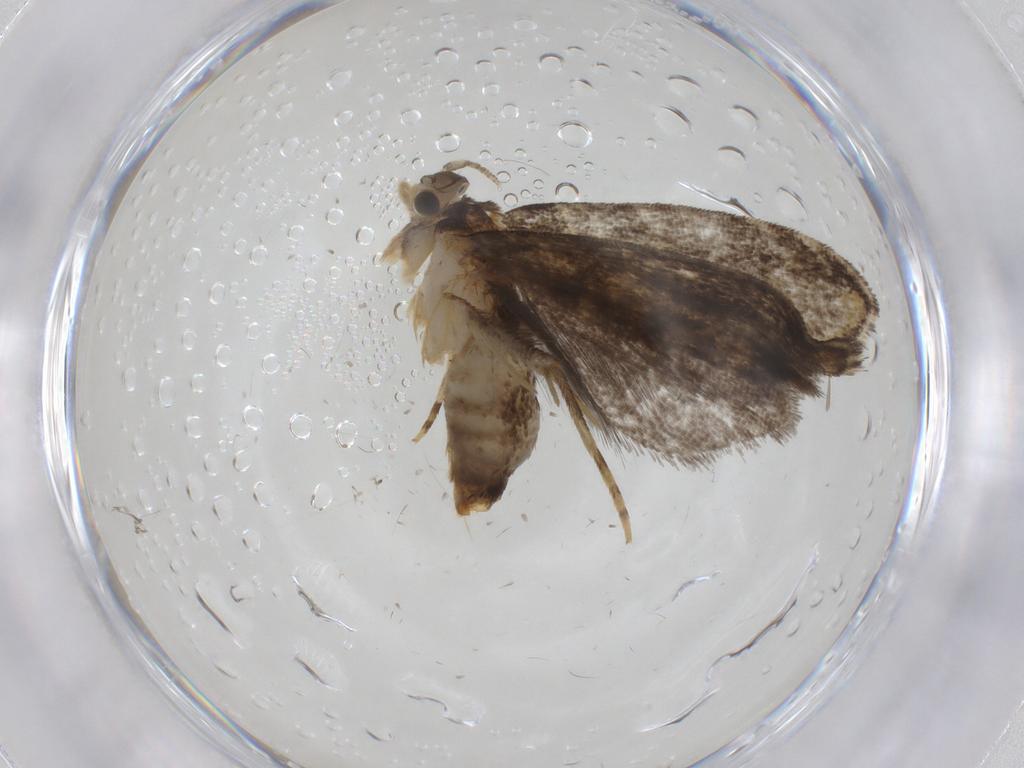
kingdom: Animalia
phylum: Arthropoda
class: Insecta
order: Lepidoptera
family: Tineidae
